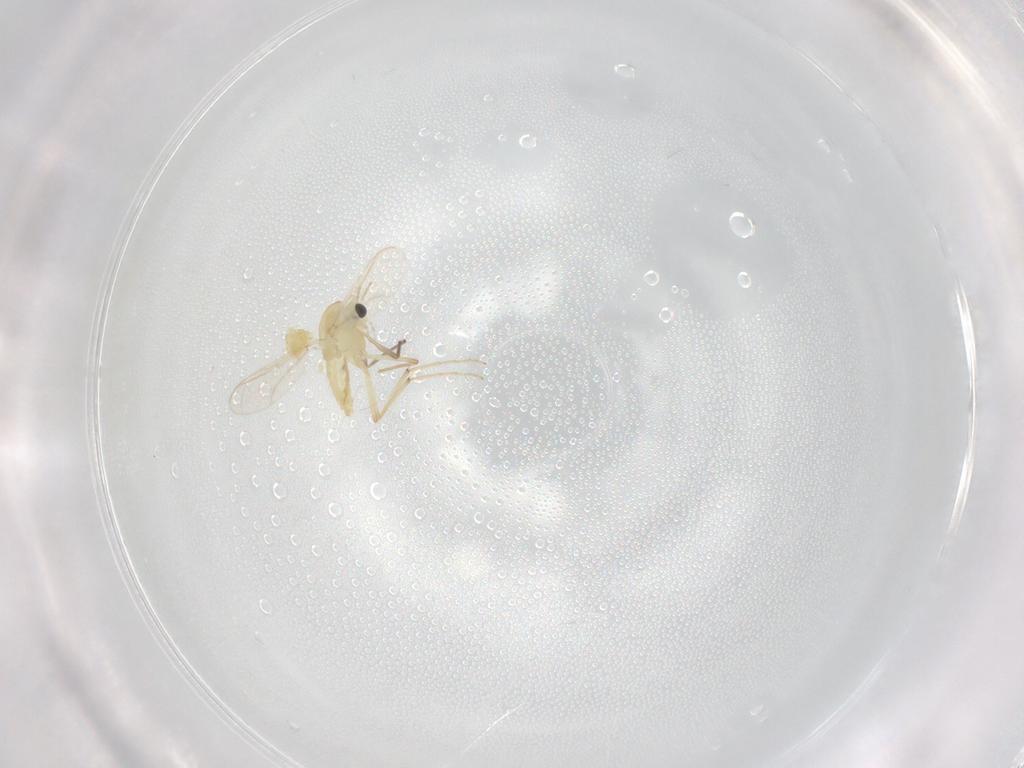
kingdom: Animalia
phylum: Arthropoda
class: Insecta
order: Diptera
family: Chironomidae
